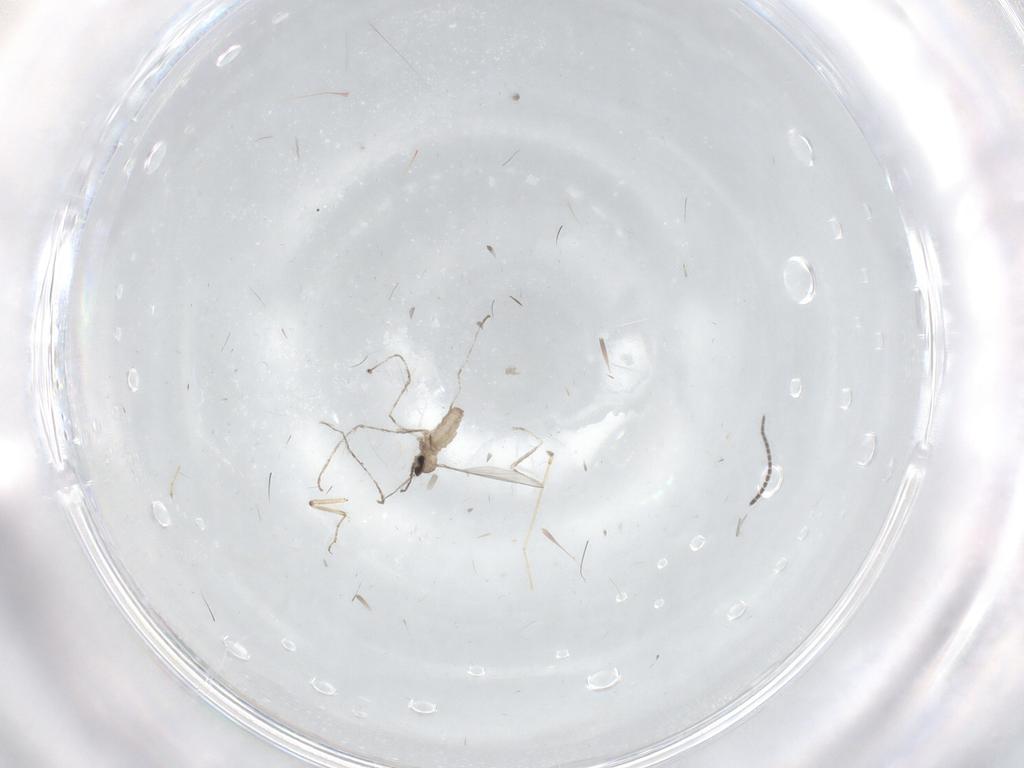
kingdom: Animalia
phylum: Arthropoda
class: Insecta
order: Diptera
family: Sciaridae
